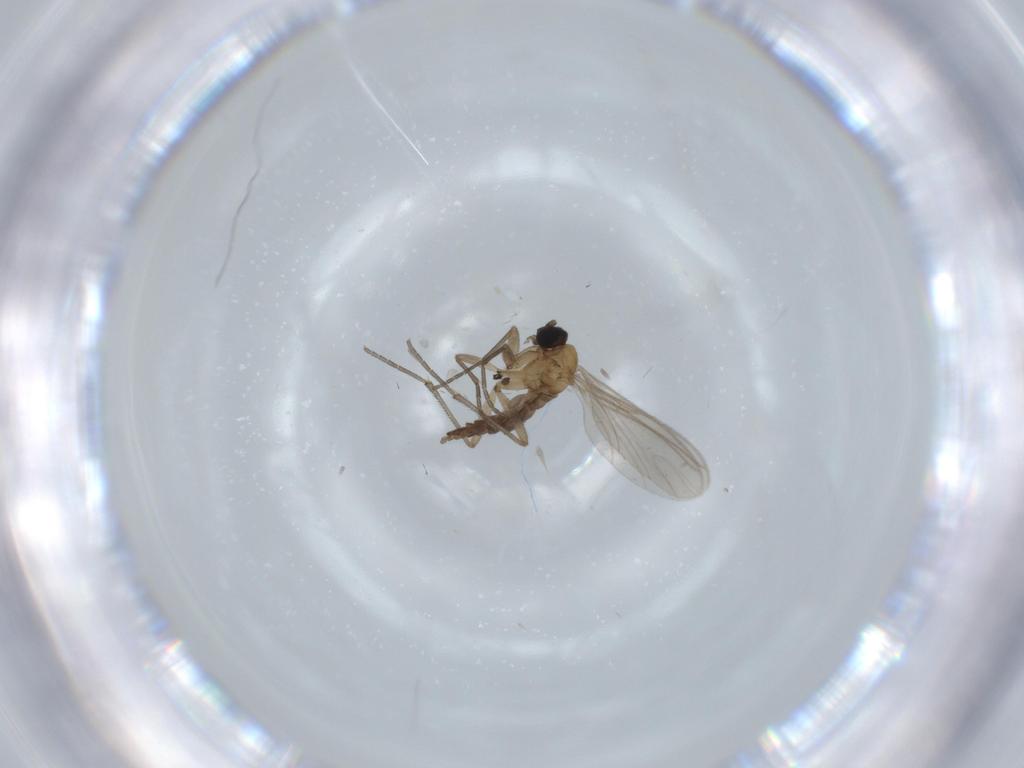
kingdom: Animalia
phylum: Arthropoda
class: Insecta
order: Diptera
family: Sciaridae
